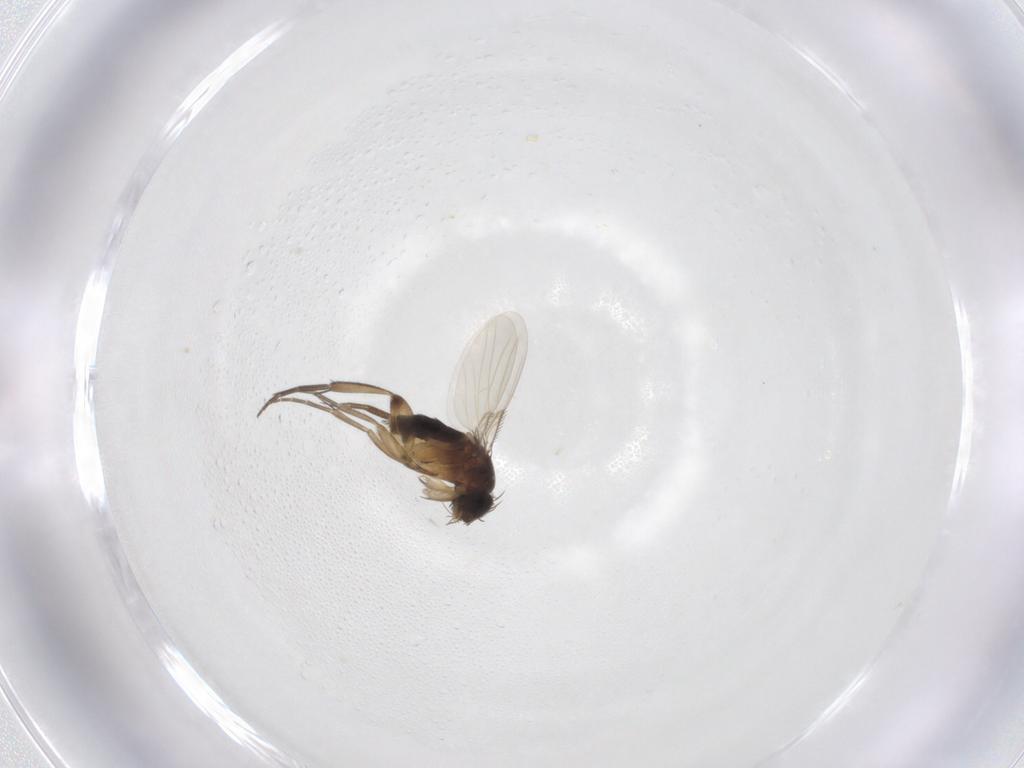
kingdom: Animalia
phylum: Arthropoda
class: Insecta
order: Diptera
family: Phoridae
